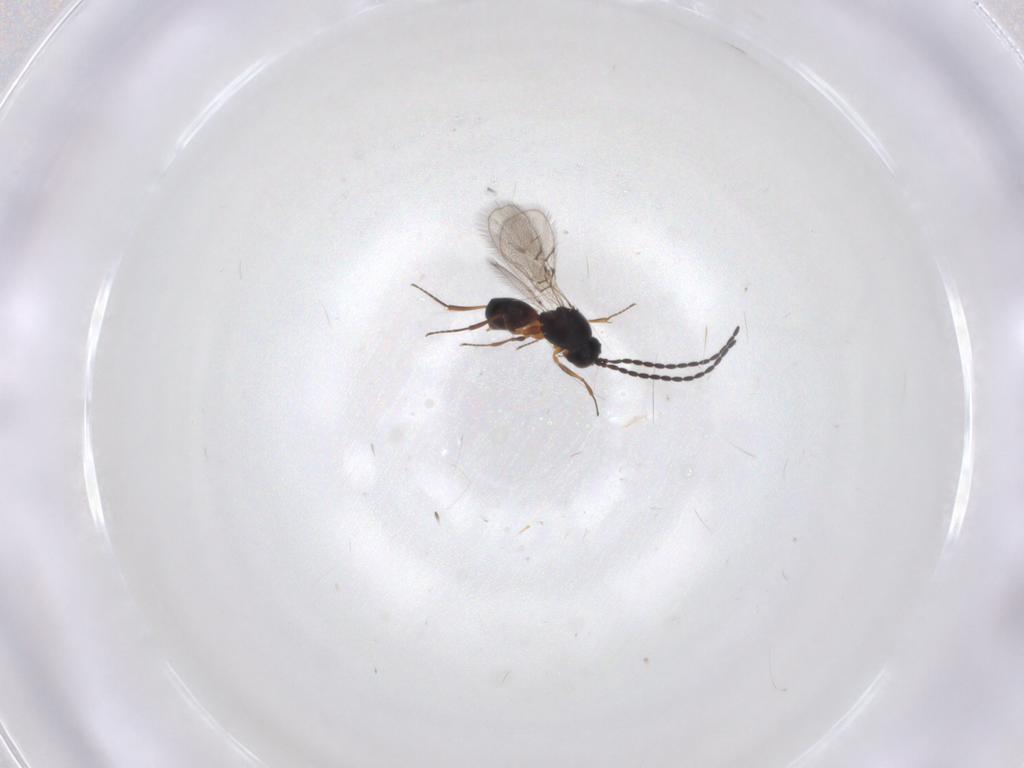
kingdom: Animalia
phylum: Arthropoda
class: Insecta
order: Hymenoptera
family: Figitidae
